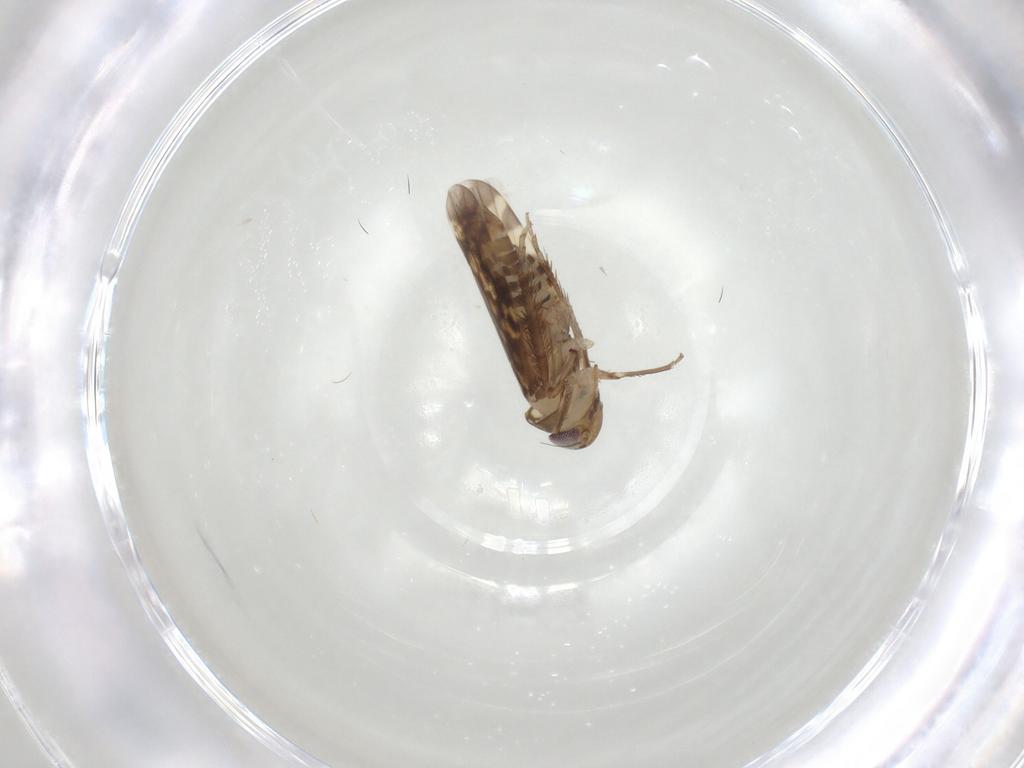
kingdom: Animalia
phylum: Arthropoda
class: Insecta
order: Hemiptera
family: Cicadellidae
